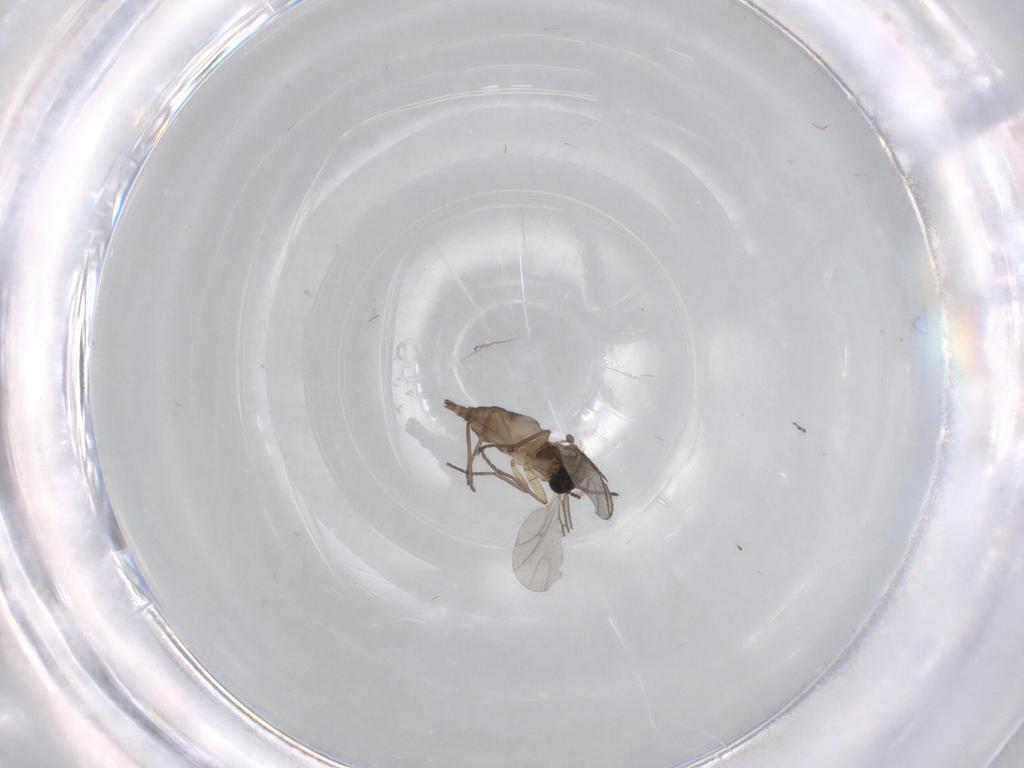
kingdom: Animalia
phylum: Arthropoda
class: Insecta
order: Diptera
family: Sciaridae
